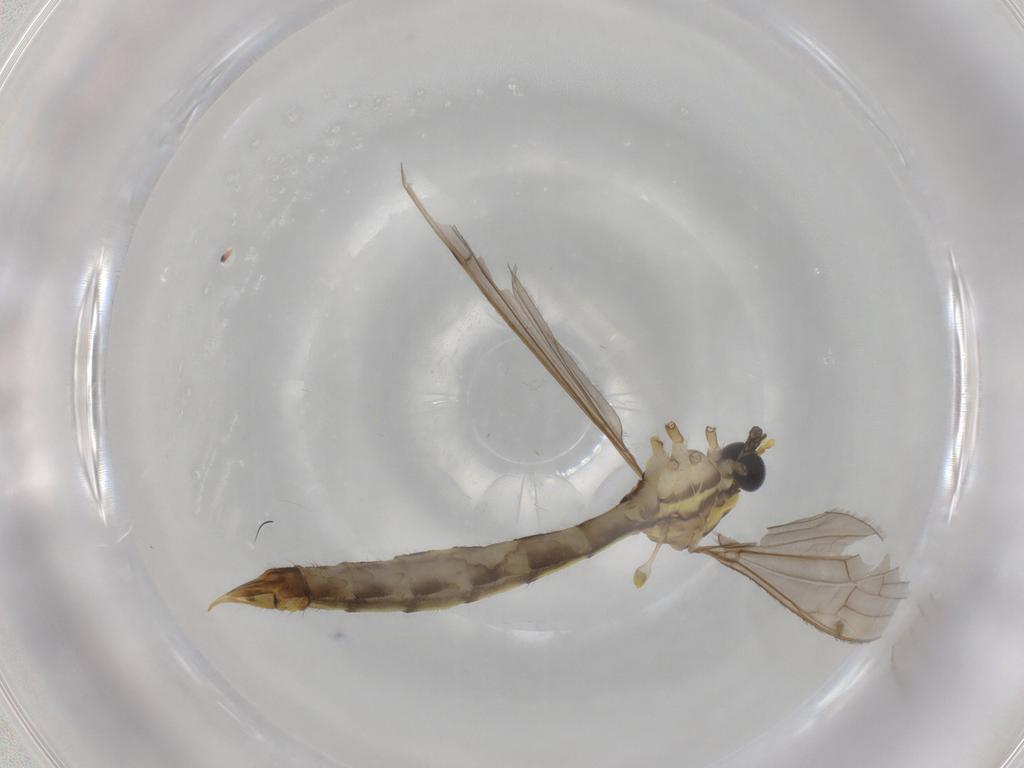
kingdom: Animalia
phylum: Arthropoda
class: Insecta
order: Diptera
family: Ceratopogonidae
